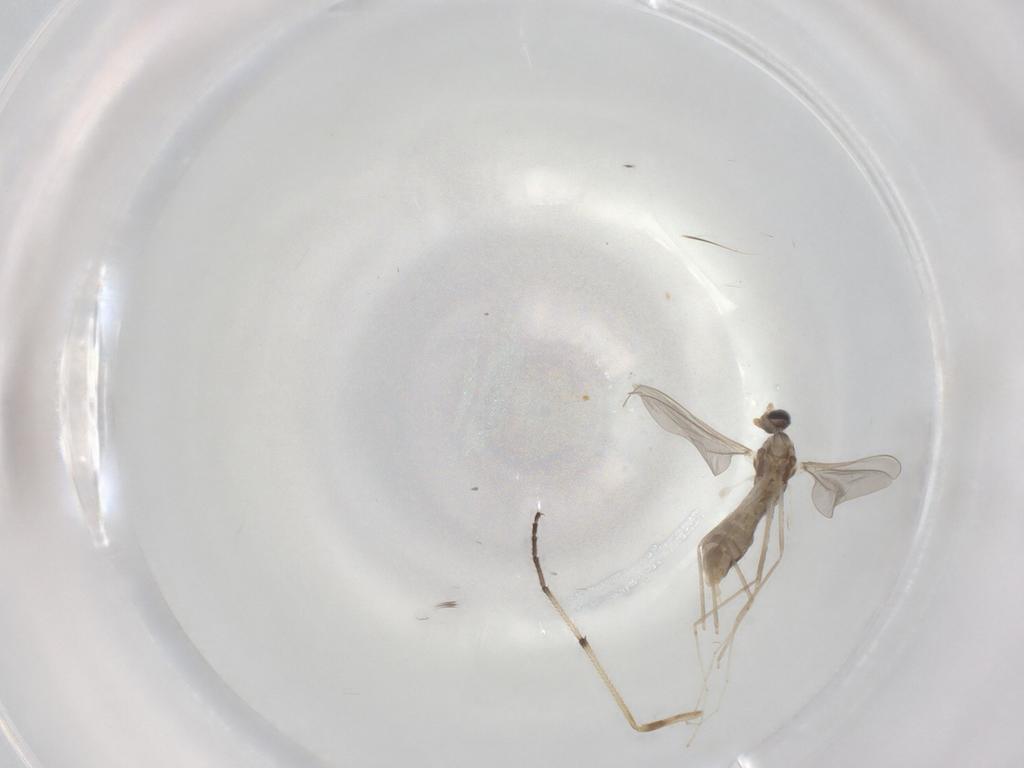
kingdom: Animalia
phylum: Arthropoda
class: Insecta
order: Diptera
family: Cecidomyiidae
